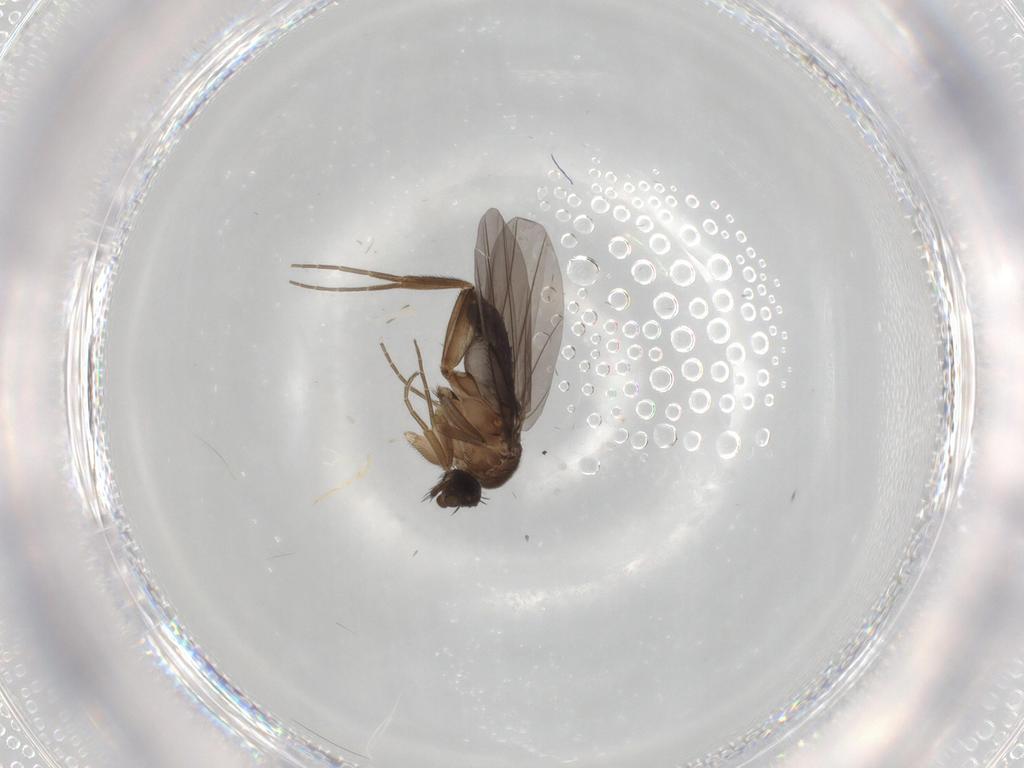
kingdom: Animalia
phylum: Arthropoda
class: Insecta
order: Diptera
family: Phoridae
